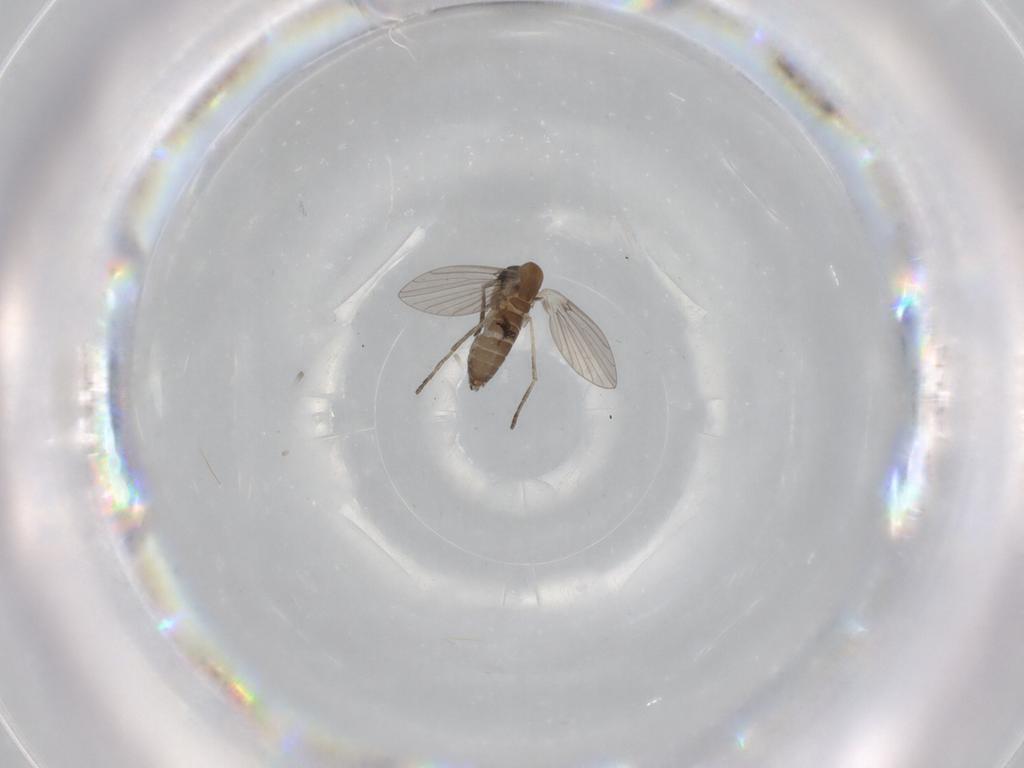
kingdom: Animalia
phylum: Arthropoda
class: Insecta
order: Diptera
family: Psychodidae
